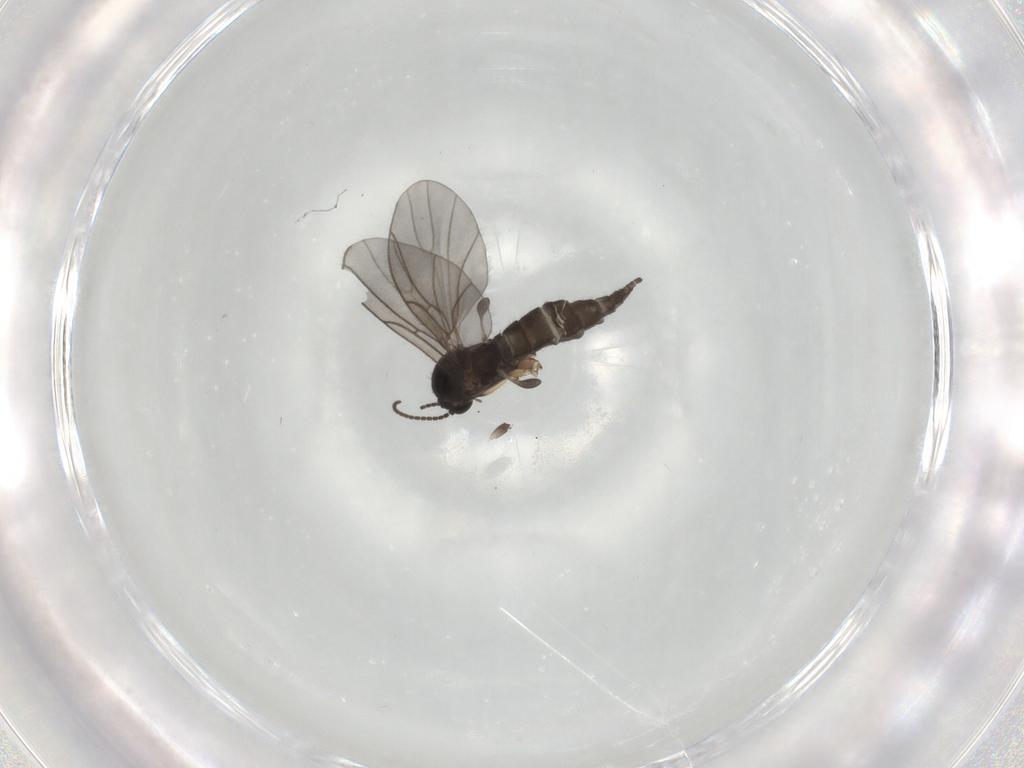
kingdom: Animalia
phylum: Arthropoda
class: Insecta
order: Diptera
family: Sciaridae
